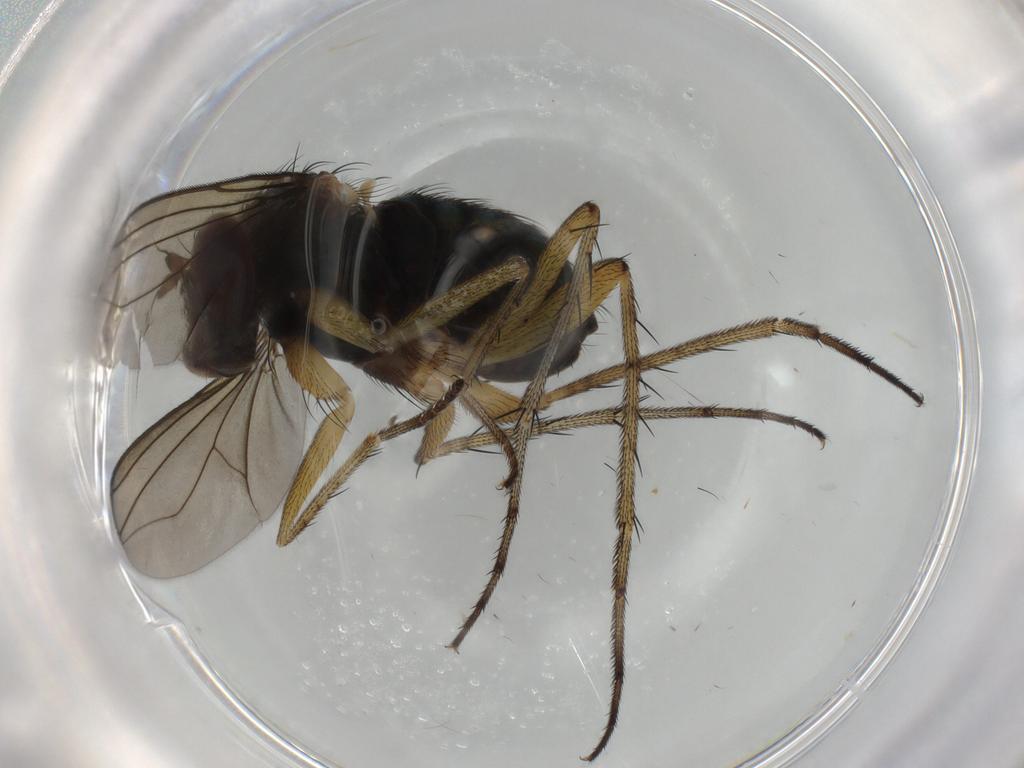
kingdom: Animalia
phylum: Arthropoda
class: Insecta
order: Diptera
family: Dolichopodidae
